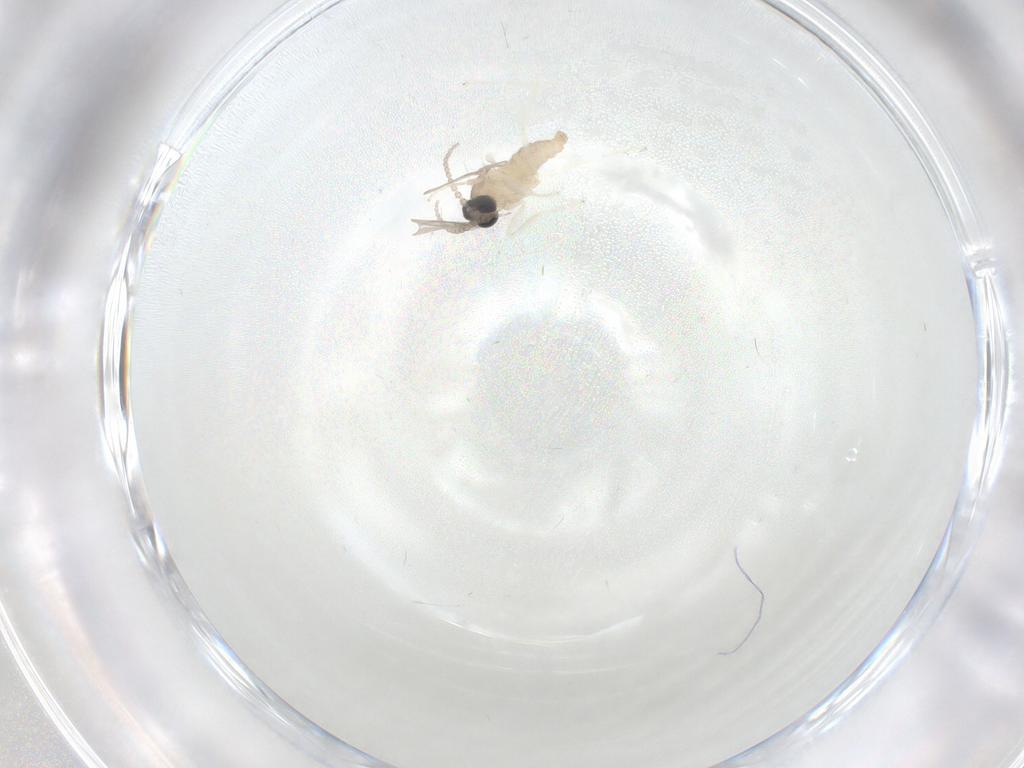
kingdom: Animalia
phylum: Arthropoda
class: Insecta
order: Diptera
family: Cecidomyiidae
